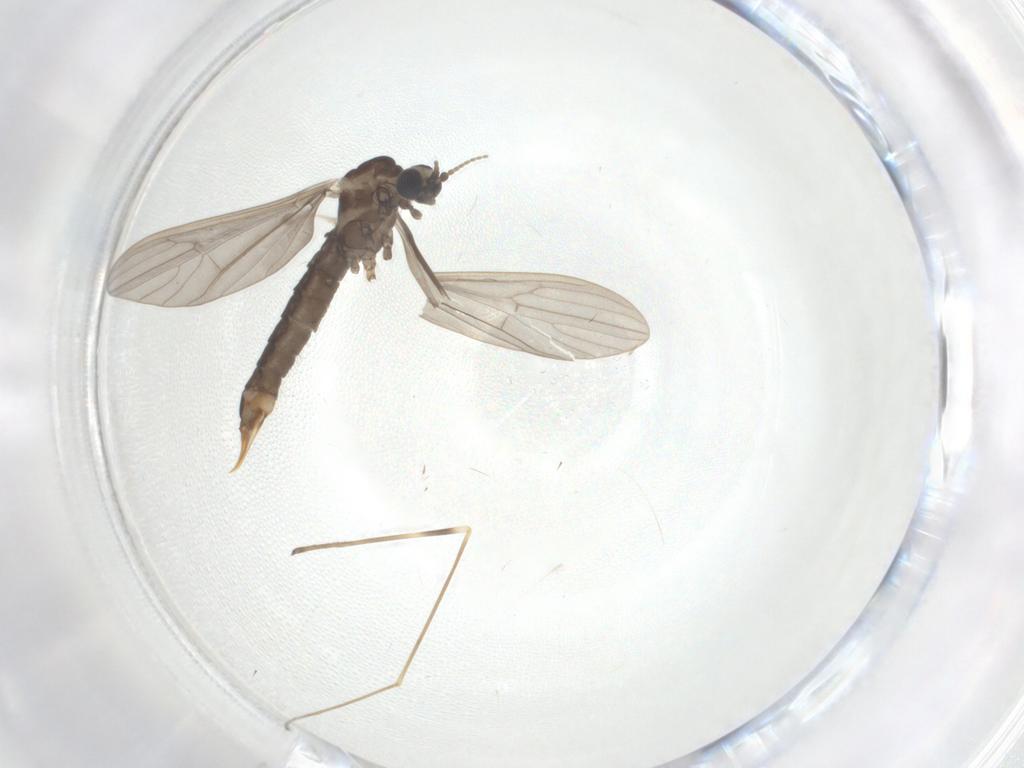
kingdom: Animalia
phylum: Arthropoda
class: Insecta
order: Diptera
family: Limoniidae
